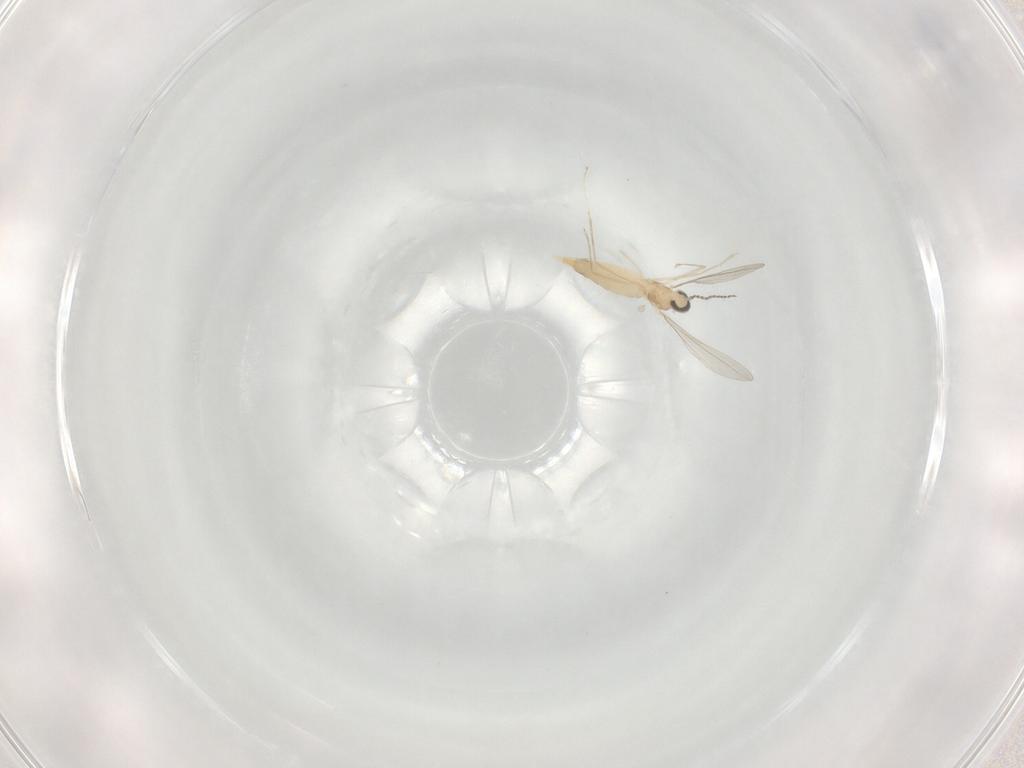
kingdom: Animalia
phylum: Arthropoda
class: Insecta
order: Diptera
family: Cecidomyiidae
